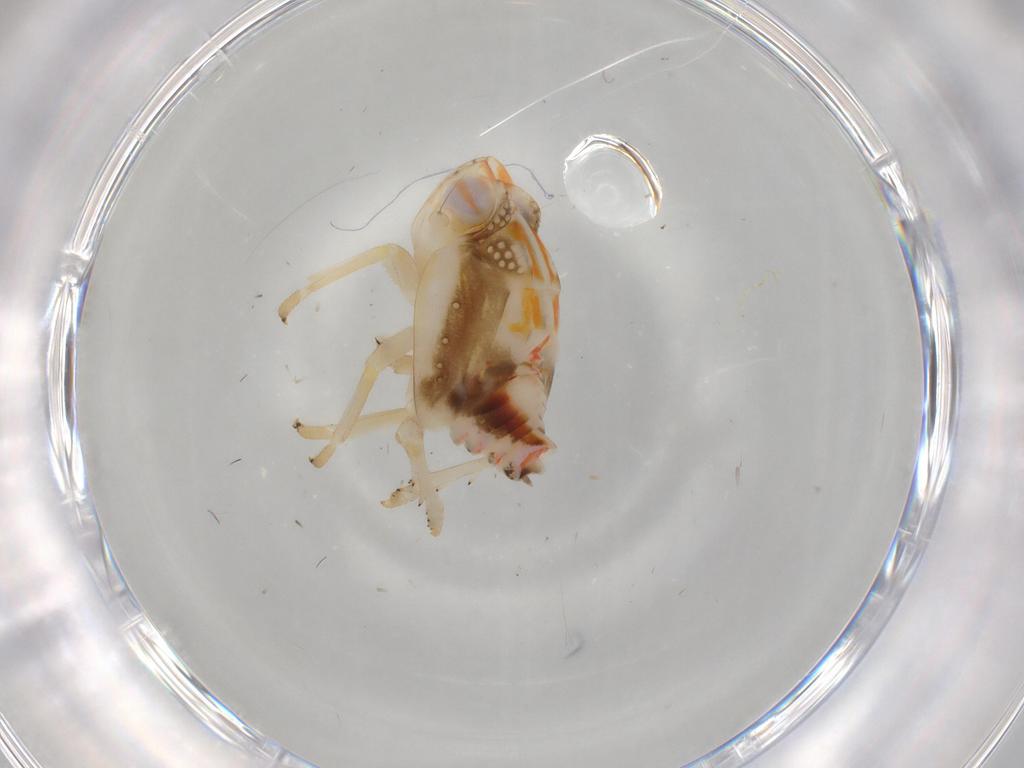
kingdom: Animalia
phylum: Arthropoda
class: Insecta
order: Hemiptera
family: Nogodinidae
